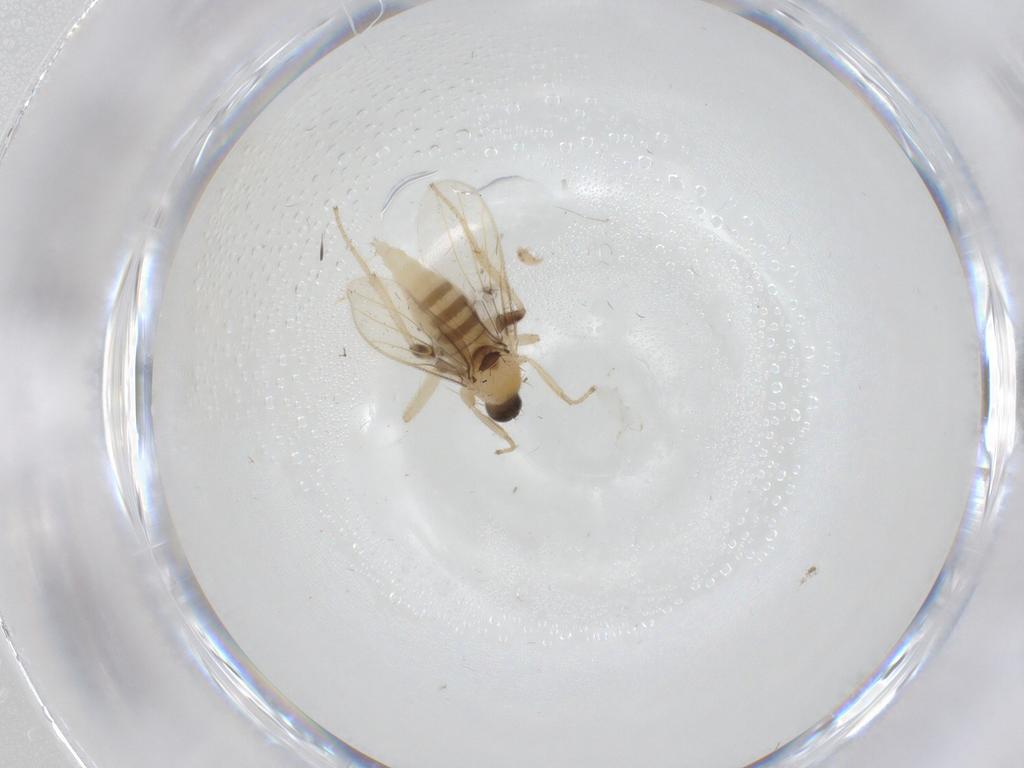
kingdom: Animalia
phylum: Arthropoda
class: Insecta
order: Diptera
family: Hybotidae
